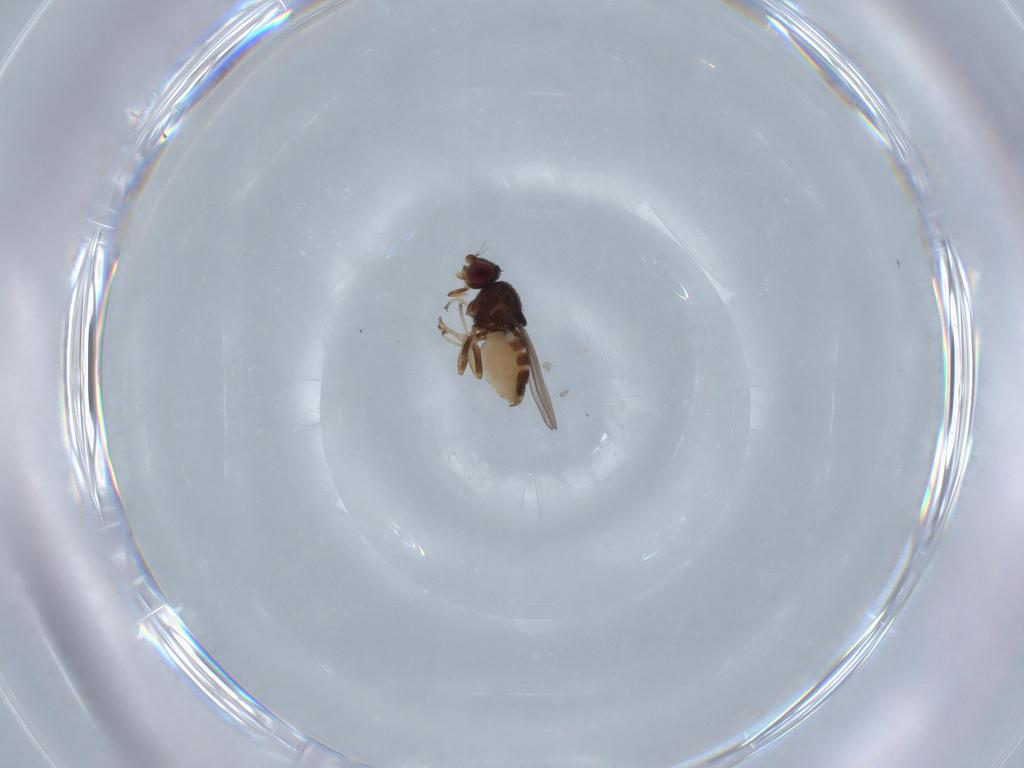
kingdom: Animalia
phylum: Arthropoda
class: Insecta
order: Diptera
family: Chloropidae
